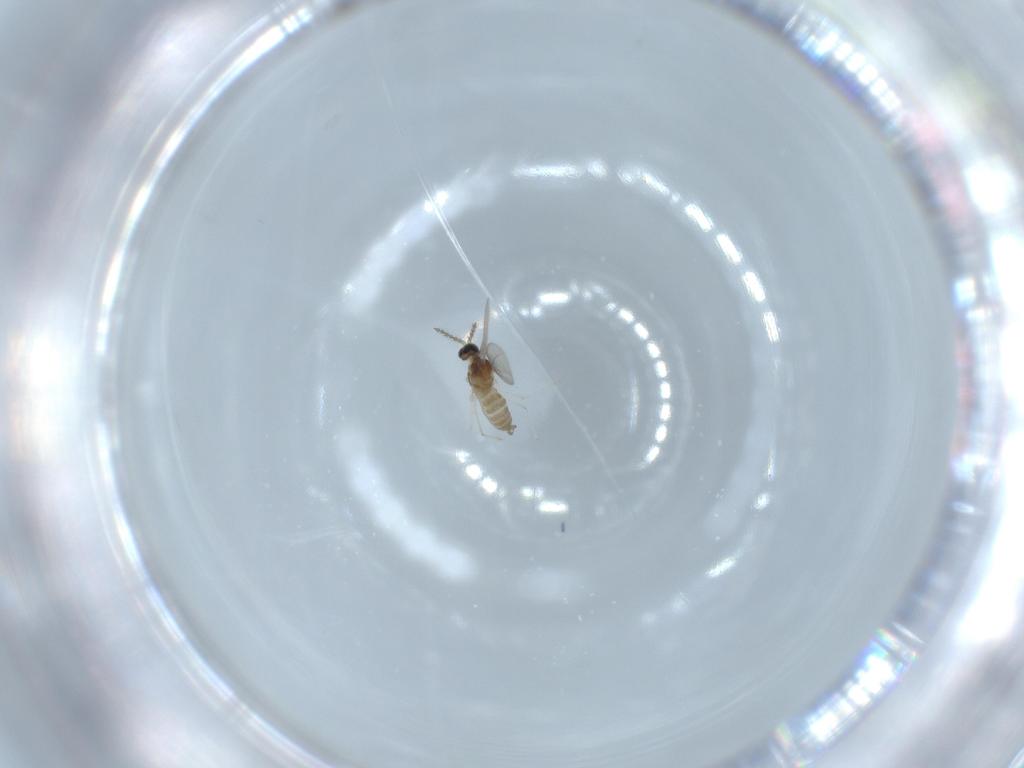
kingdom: Animalia
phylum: Arthropoda
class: Insecta
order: Diptera
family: Cecidomyiidae
